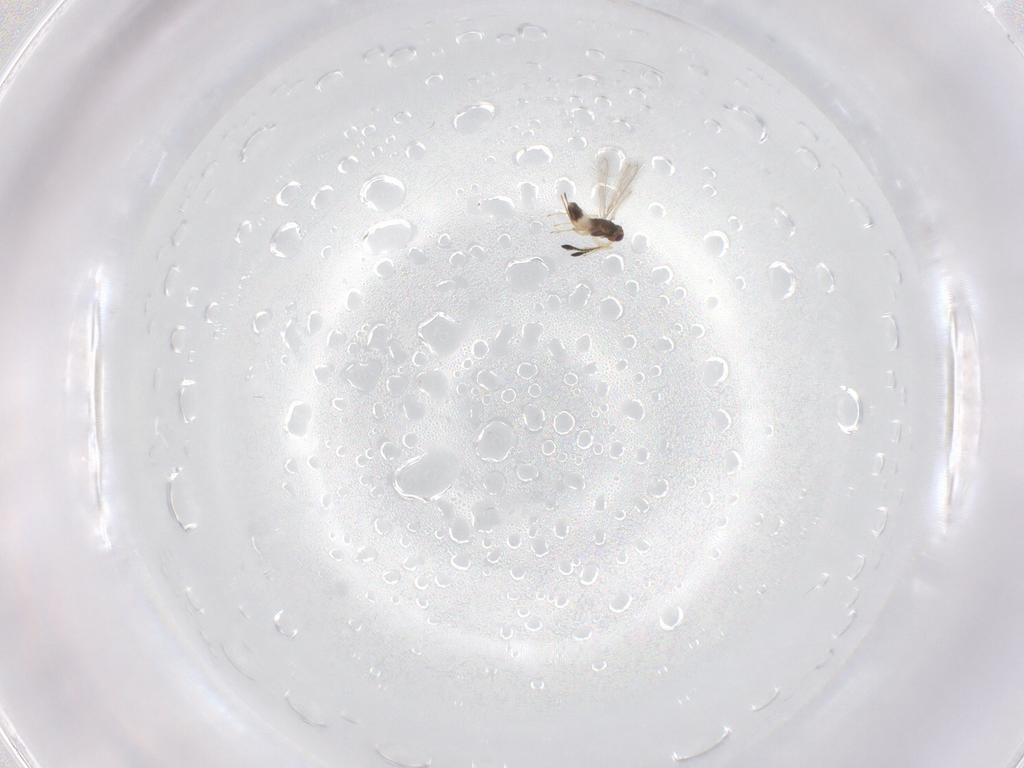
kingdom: Animalia
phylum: Arthropoda
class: Insecta
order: Hymenoptera
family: Mymaridae
